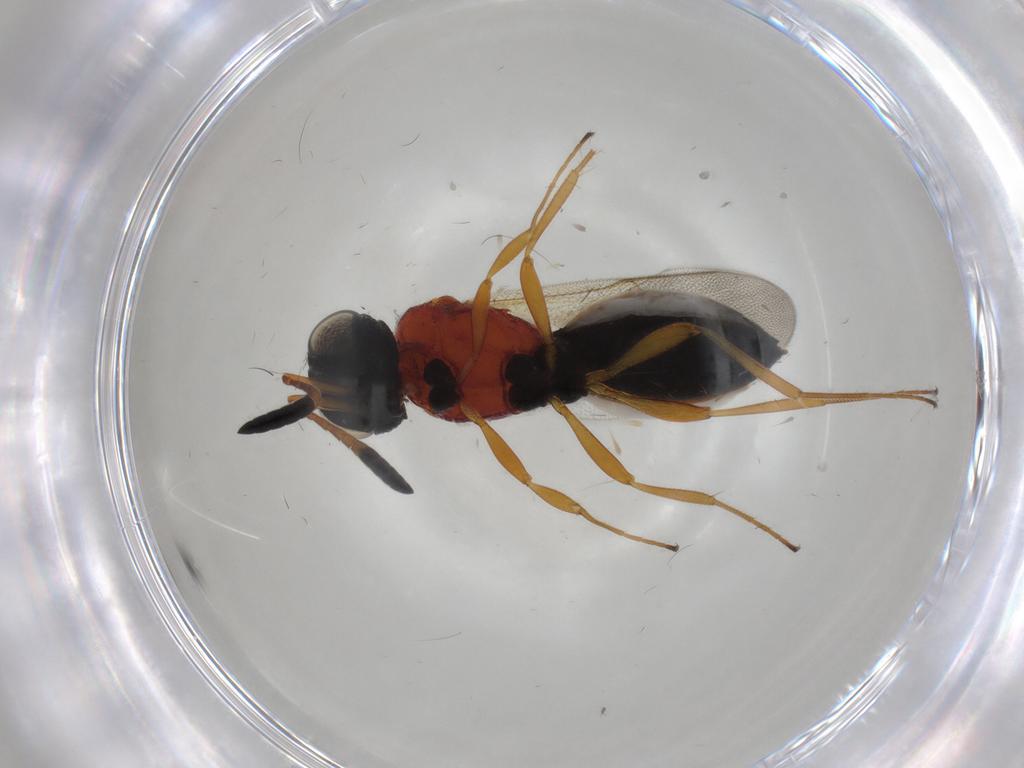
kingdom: Animalia
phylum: Arthropoda
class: Insecta
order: Hymenoptera
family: Scelionidae
